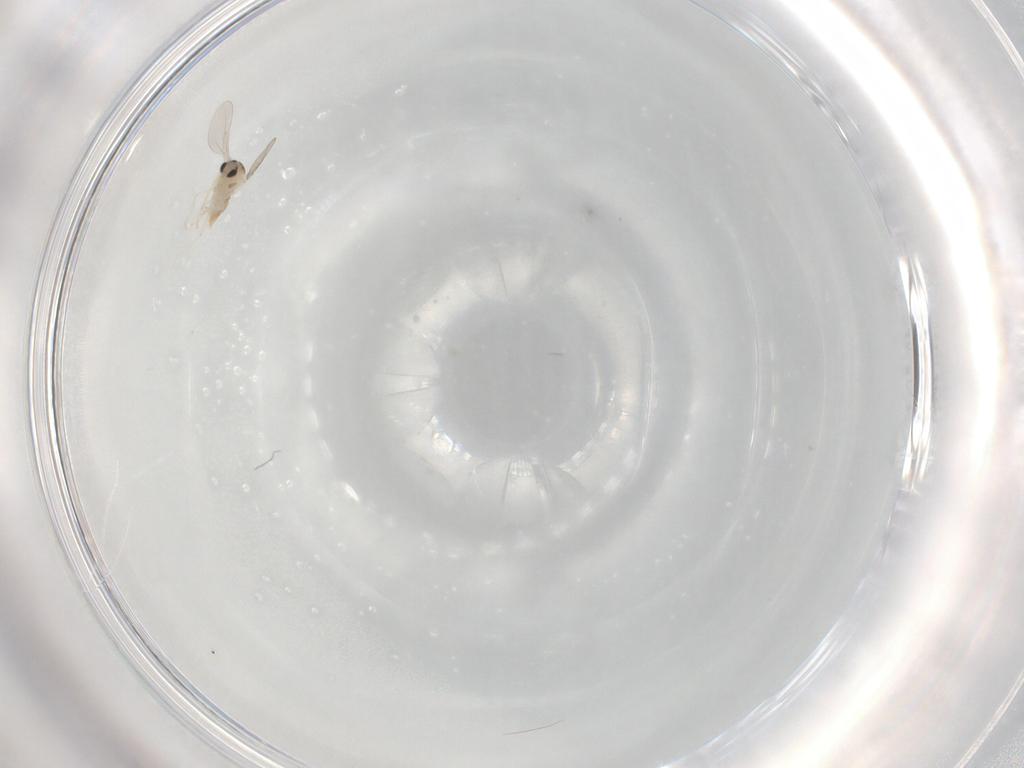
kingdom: Animalia
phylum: Arthropoda
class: Insecta
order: Diptera
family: Cecidomyiidae
